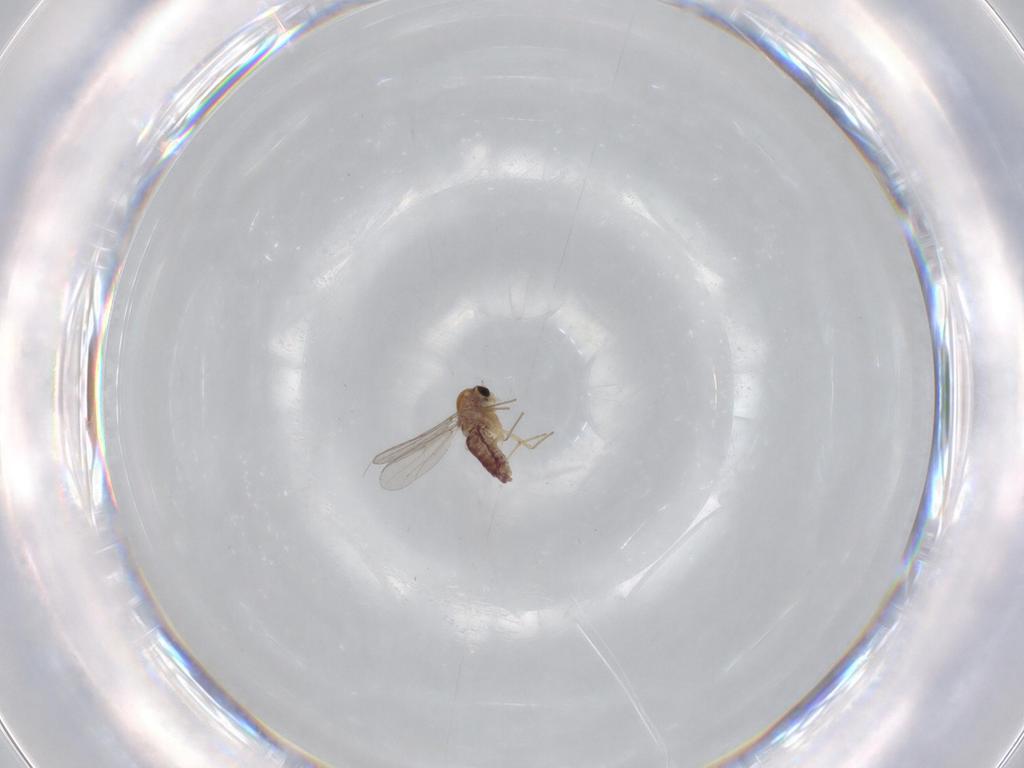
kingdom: Animalia
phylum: Arthropoda
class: Insecta
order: Diptera
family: Chironomidae
